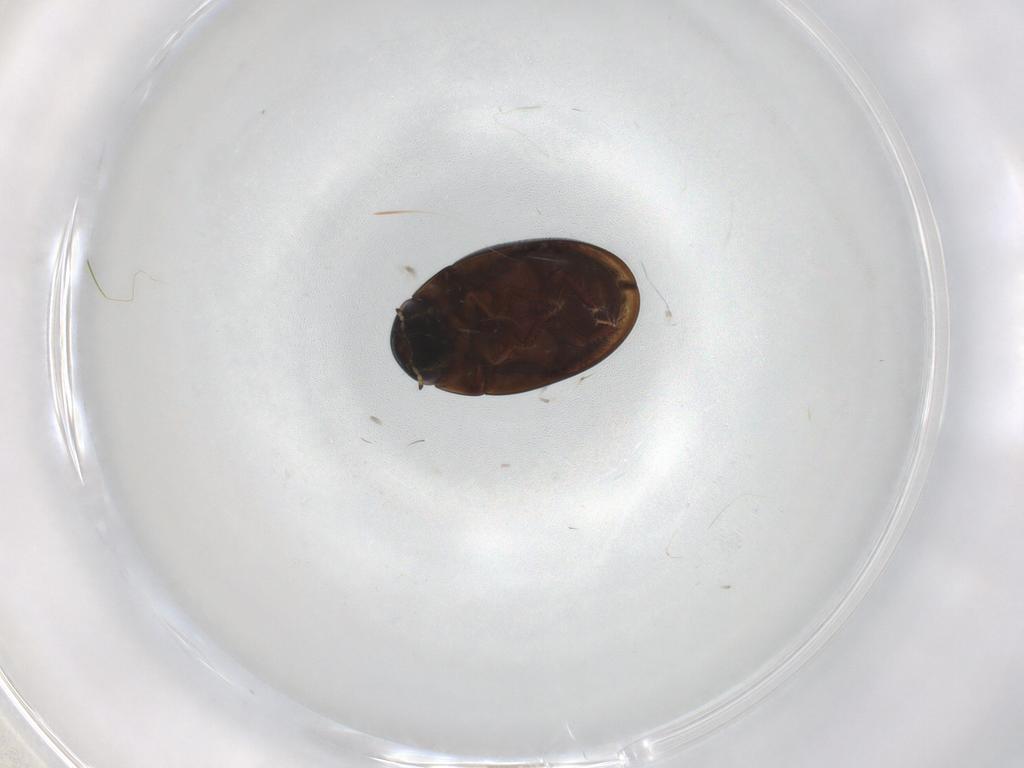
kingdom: Animalia
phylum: Arthropoda
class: Insecta
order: Coleoptera
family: Hydrophilidae
